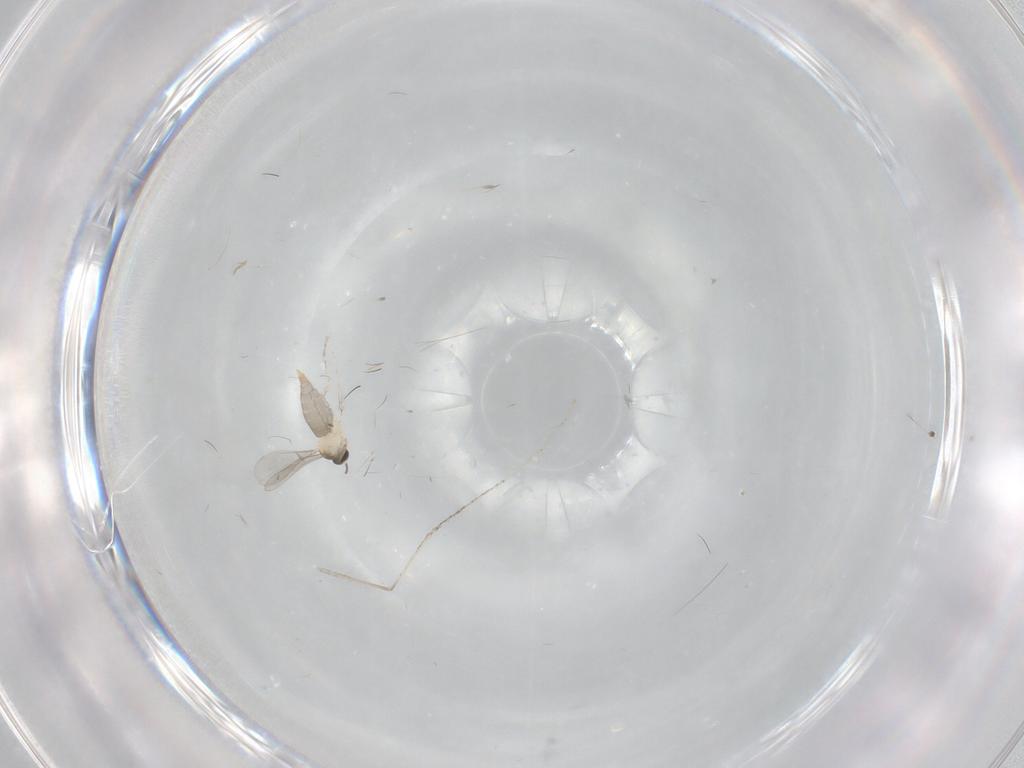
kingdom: Animalia
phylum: Arthropoda
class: Insecta
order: Diptera
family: Cecidomyiidae
